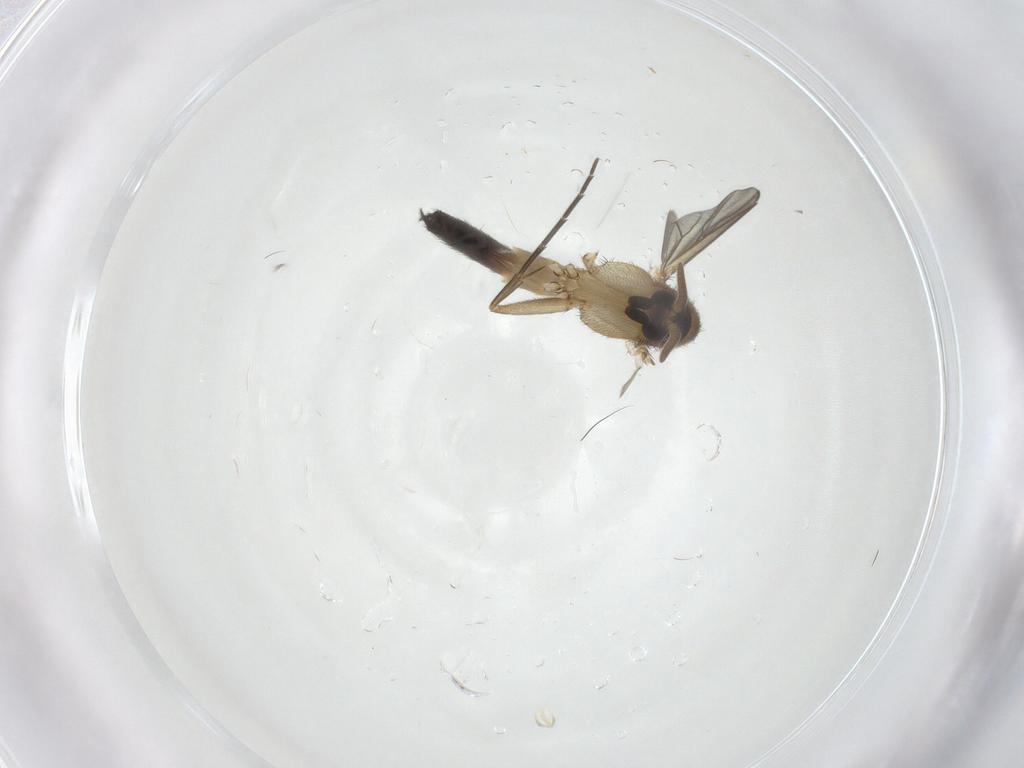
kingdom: Animalia
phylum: Arthropoda
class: Insecta
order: Diptera
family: Mycetophilidae
